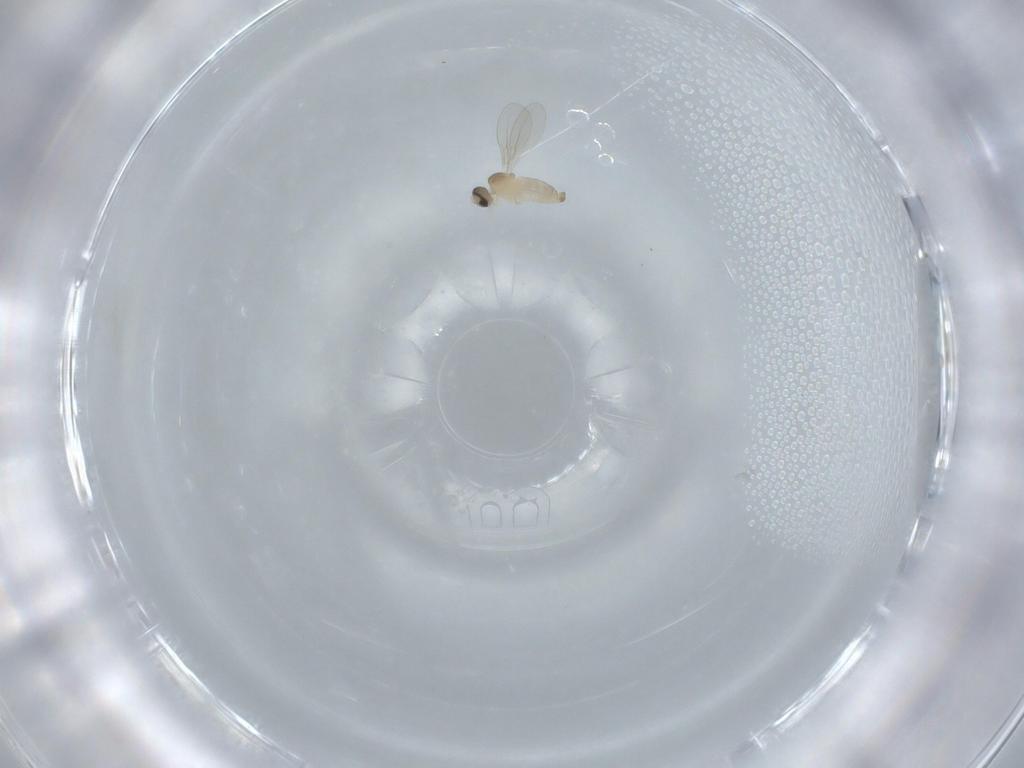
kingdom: Animalia
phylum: Arthropoda
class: Insecta
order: Diptera
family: Cecidomyiidae
